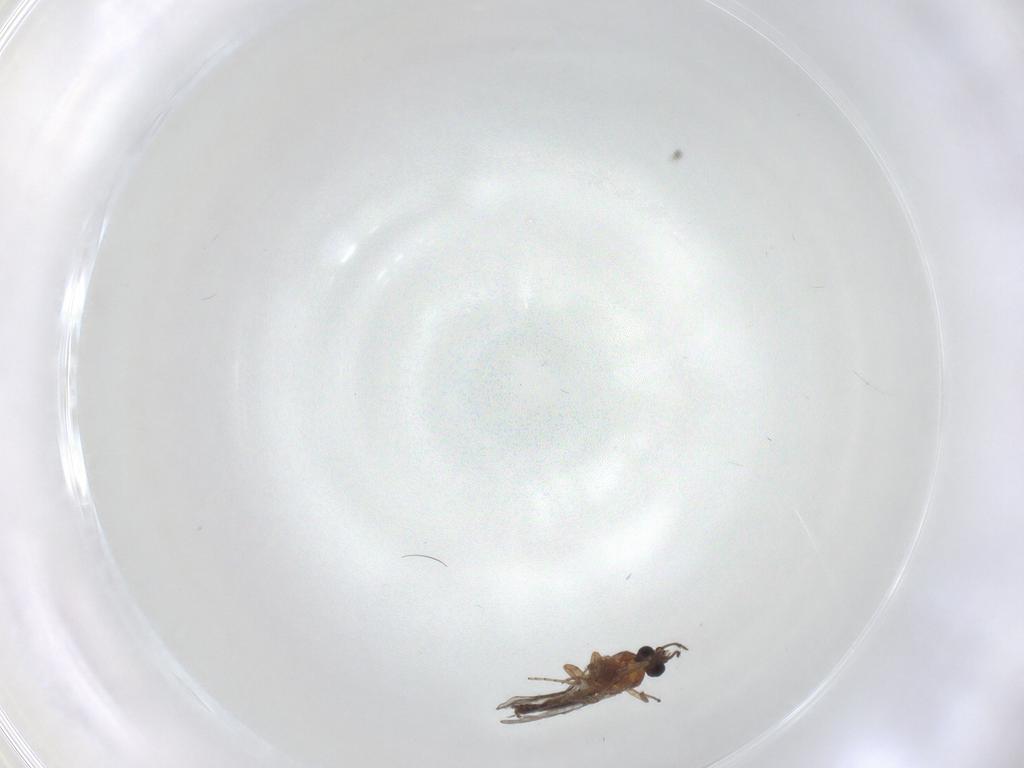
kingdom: Animalia
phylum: Arthropoda
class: Insecta
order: Diptera
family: Ceratopogonidae
